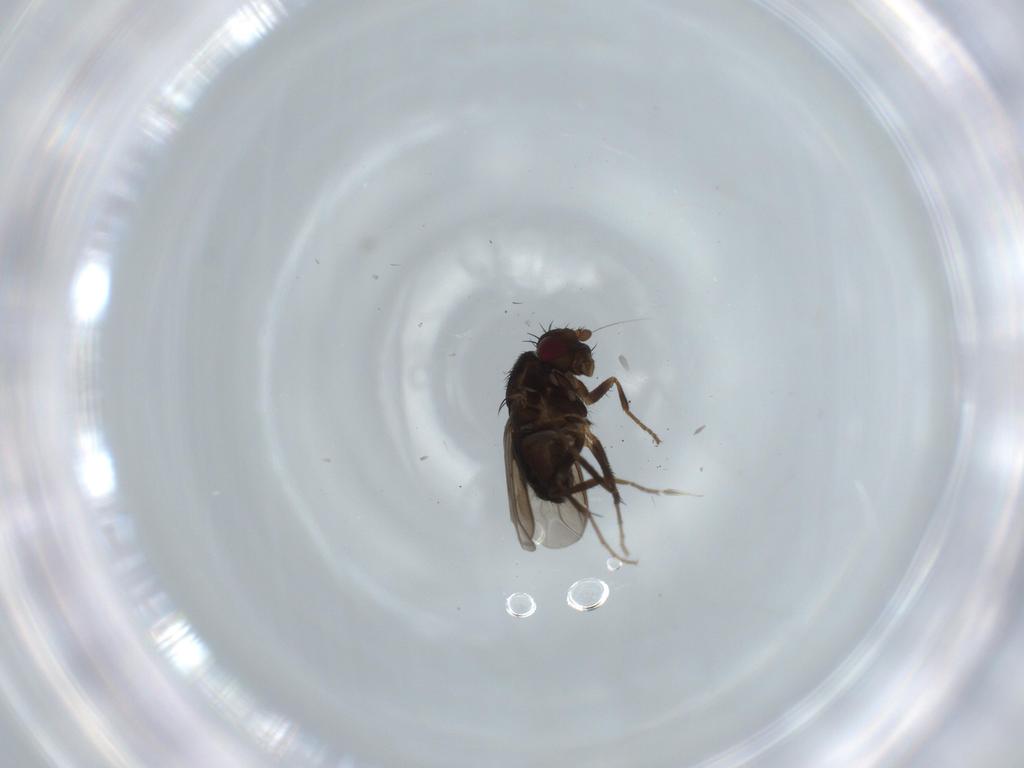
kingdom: Animalia
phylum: Arthropoda
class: Insecta
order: Diptera
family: Sphaeroceridae
